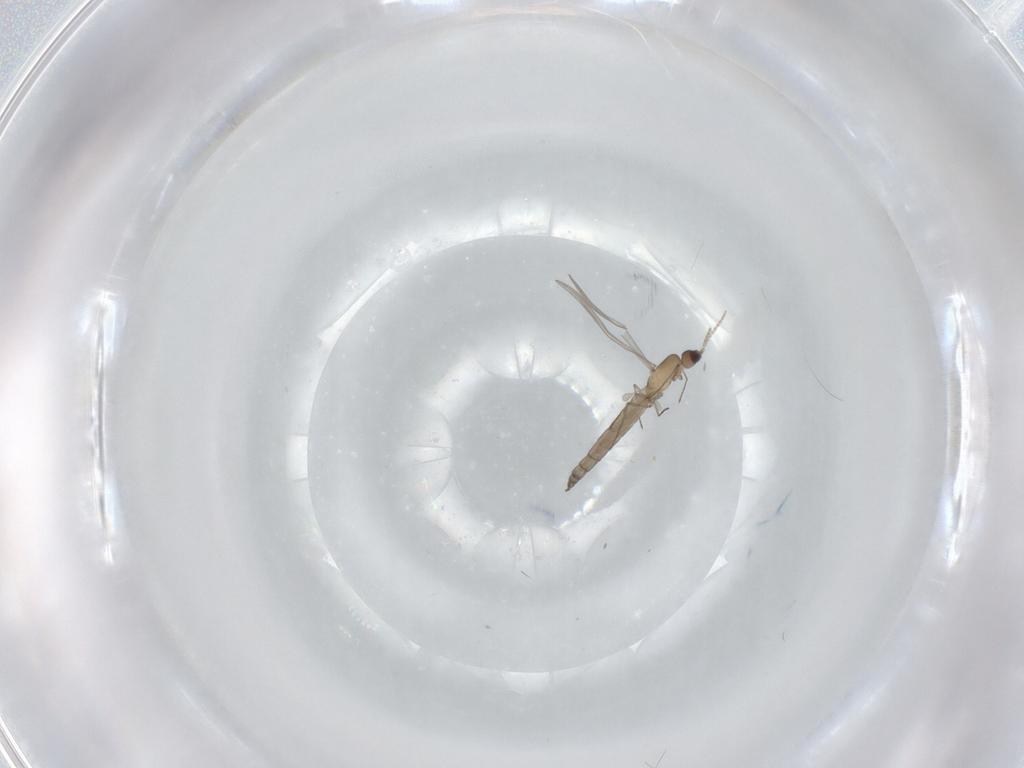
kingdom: Animalia
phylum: Arthropoda
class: Insecta
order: Diptera
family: Cecidomyiidae
